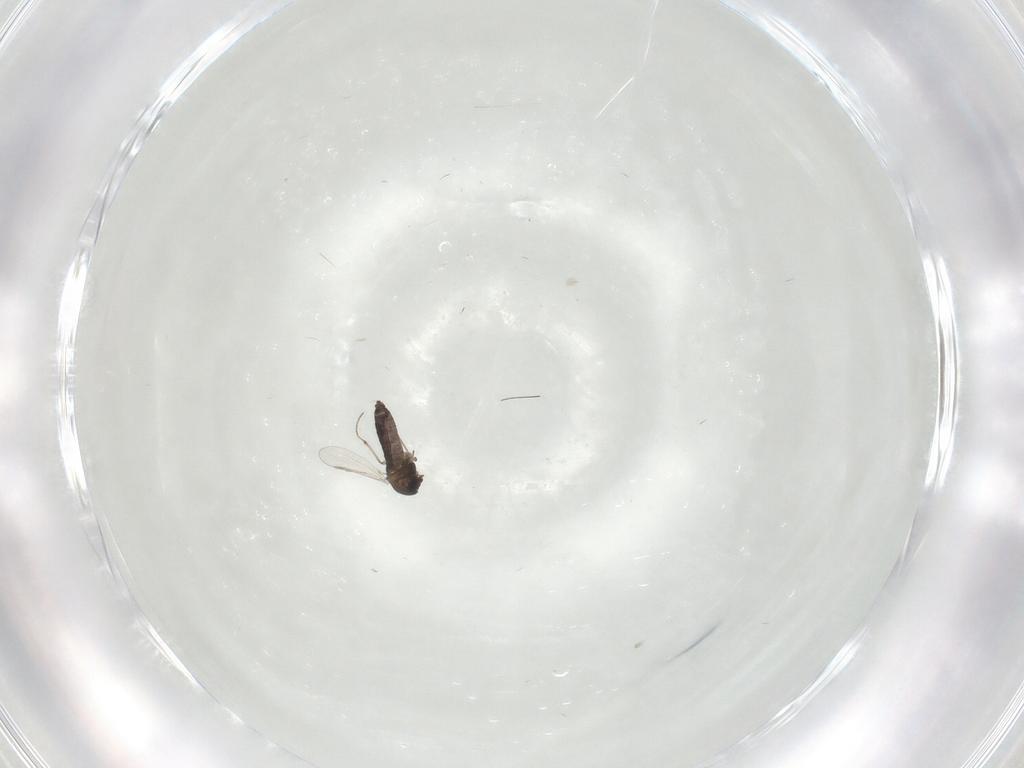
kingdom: Animalia
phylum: Arthropoda
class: Insecta
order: Diptera
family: Chironomidae
